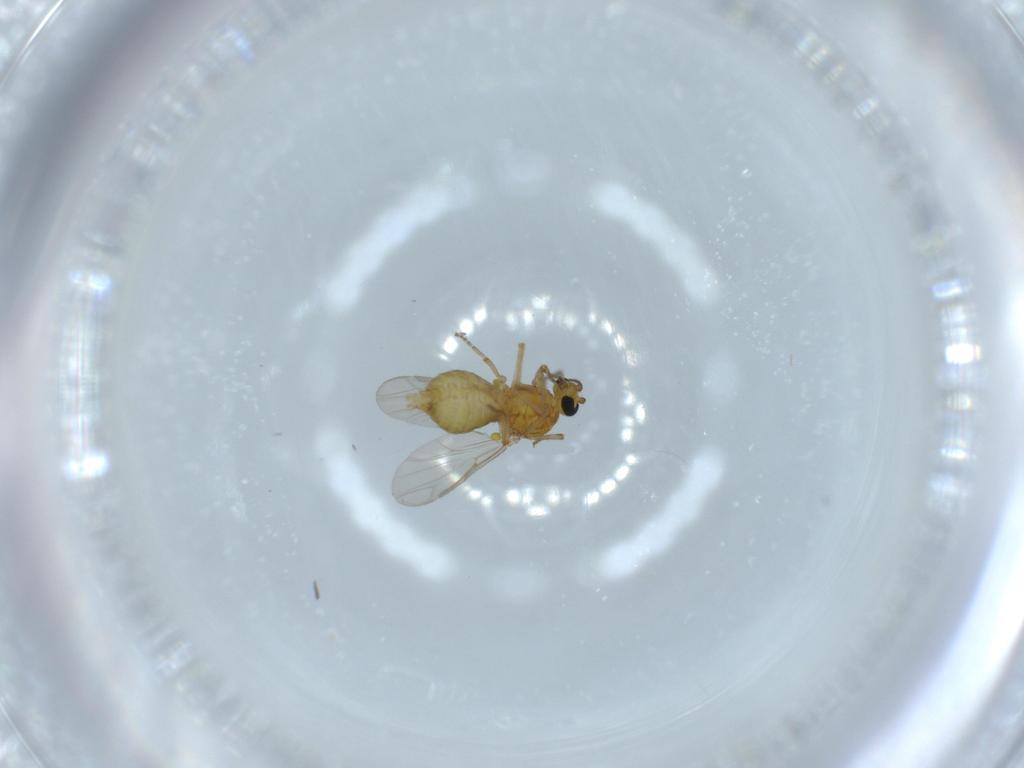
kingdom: Animalia
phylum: Arthropoda
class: Insecta
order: Diptera
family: Ceratopogonidae
